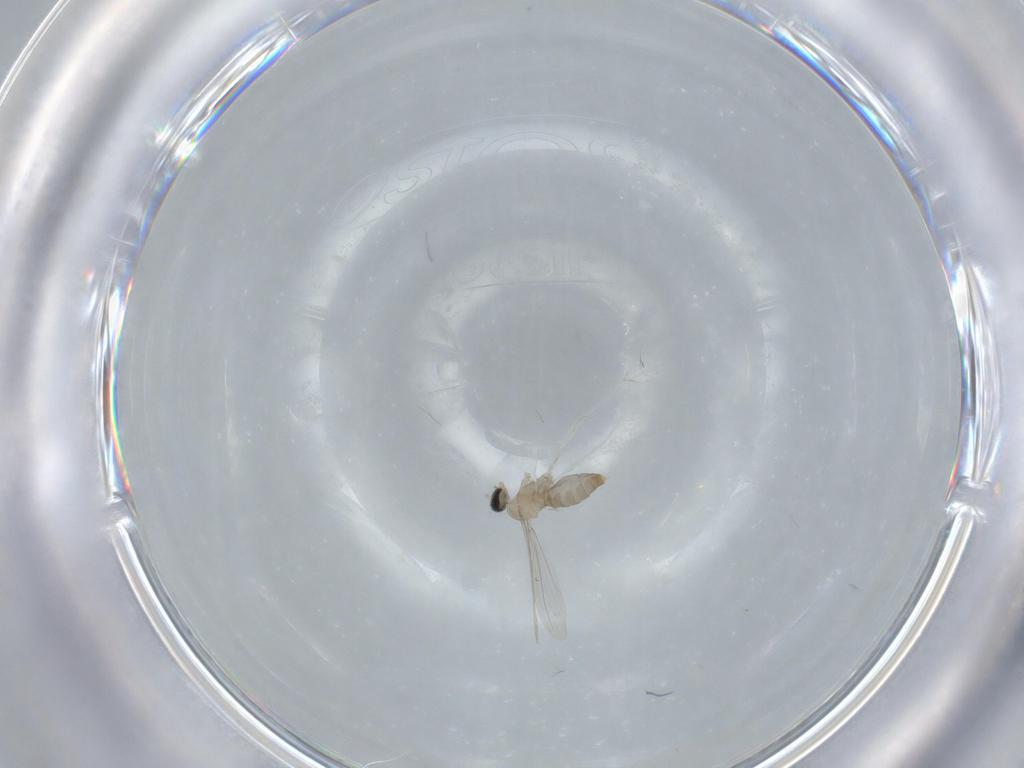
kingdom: Animalia
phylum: Arthropoda
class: Insecta
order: Diptera
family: Cecidomyiidae
